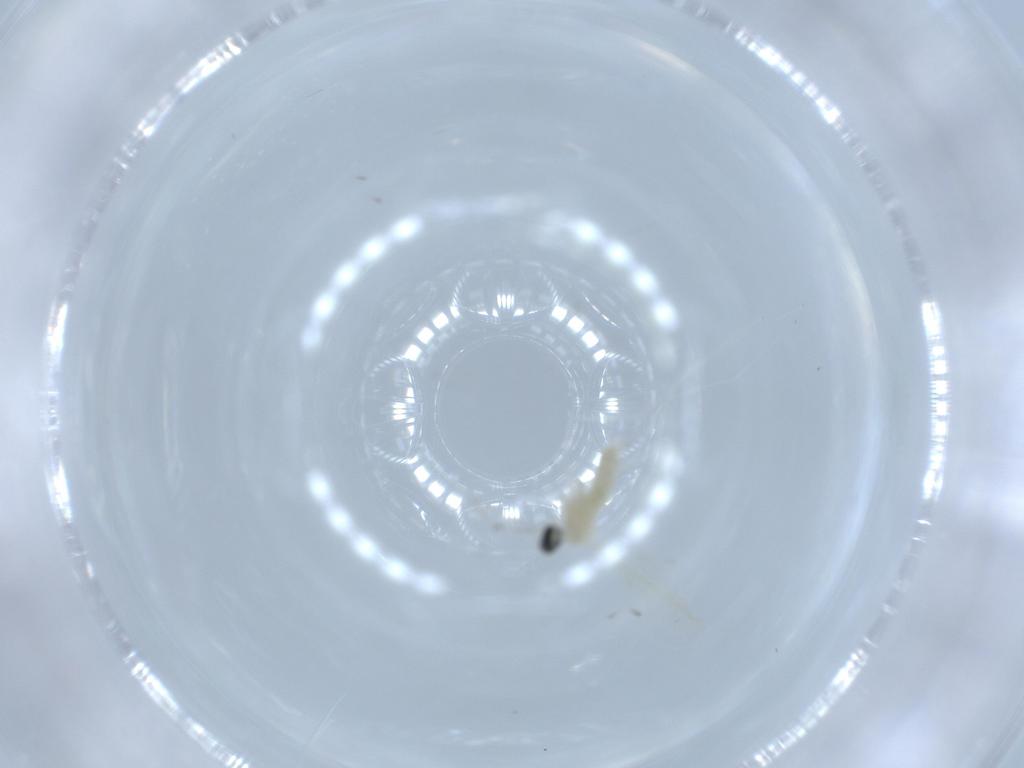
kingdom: Animalia
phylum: Arthropoda
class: Insecta
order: Diptera
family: Cecidomyiidae
